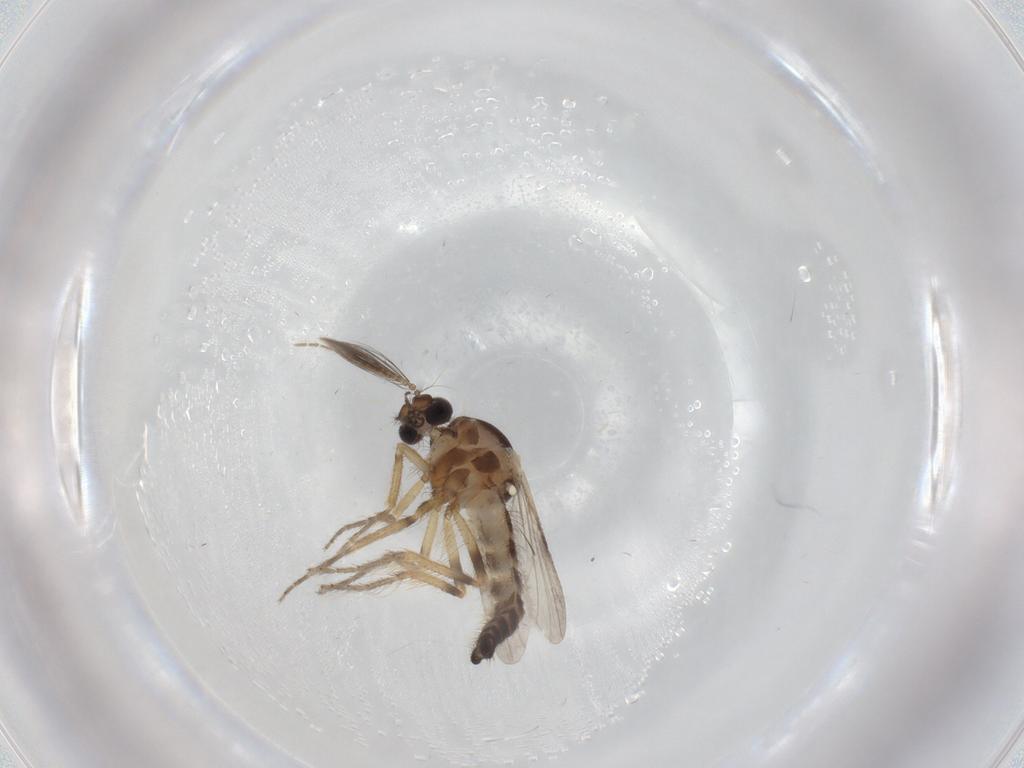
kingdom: Animalia
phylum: Arthropoda
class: Insecta
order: Diptera
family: Ceratopogonidae
